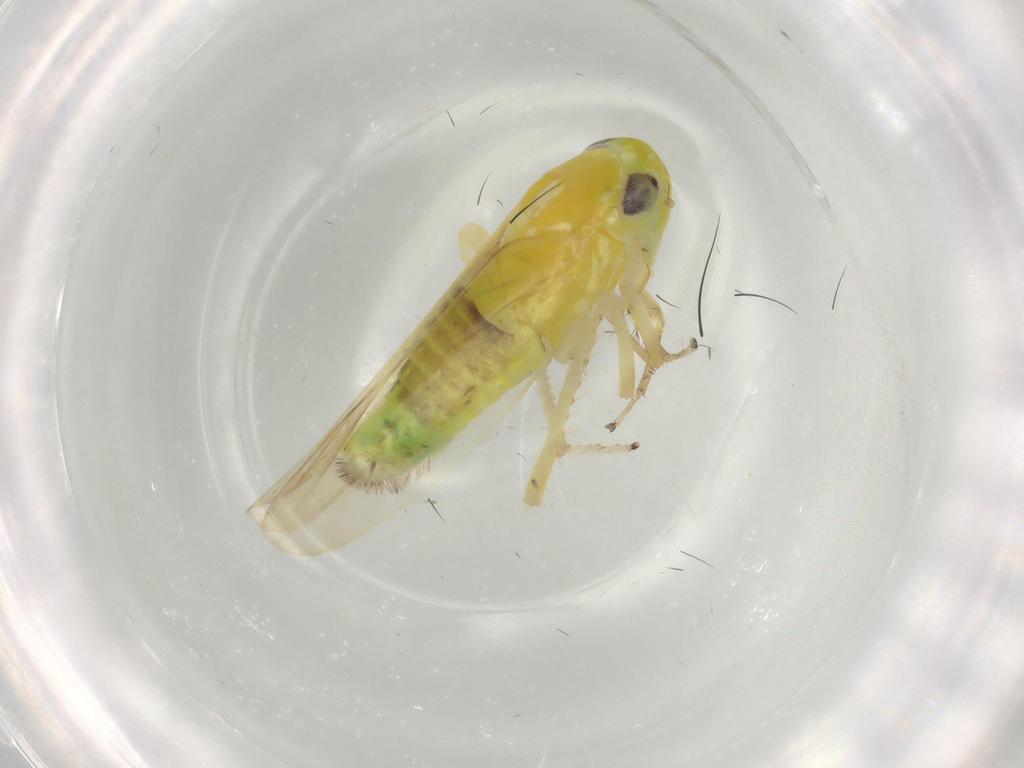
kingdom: Animalia
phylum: Arthropoda
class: Insecta
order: Hemiptera
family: Cicadellidae
